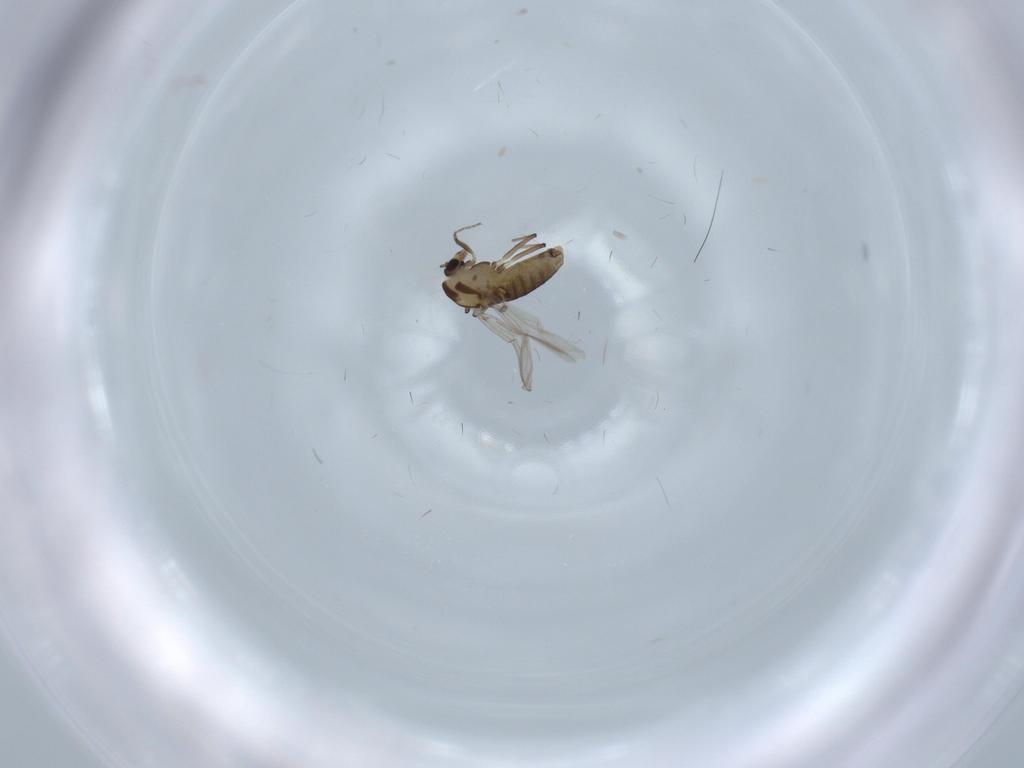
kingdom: Animalia
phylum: Arthropoda
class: Insecta
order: Diptera
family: Chironomidae
